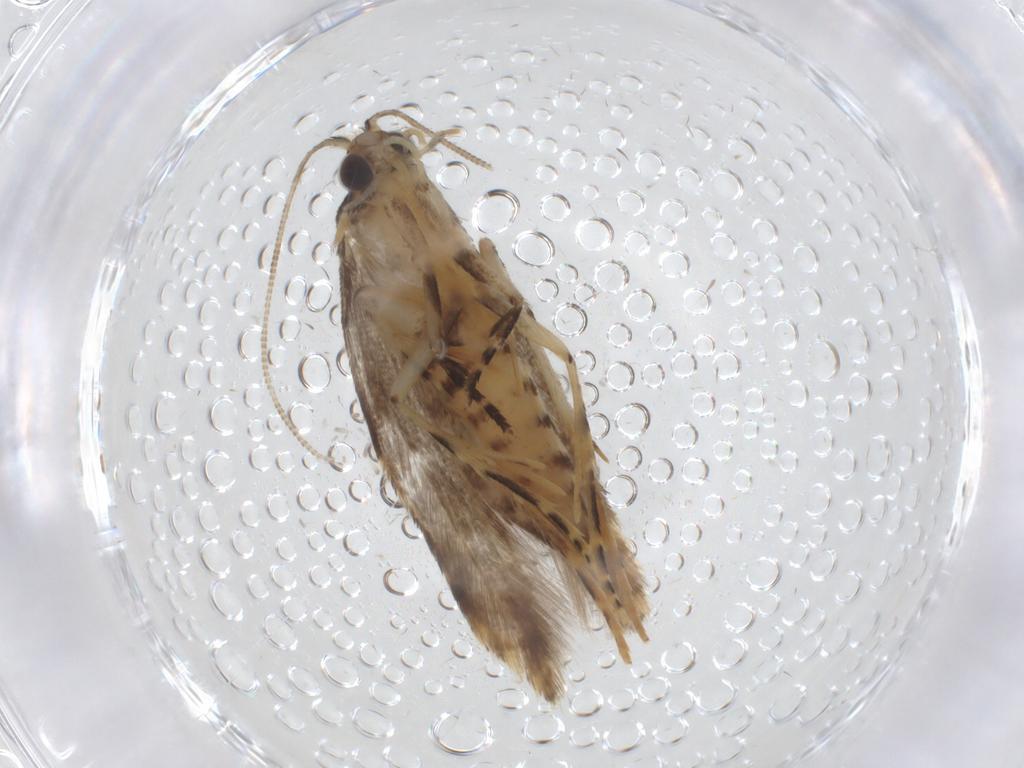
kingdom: Animalia
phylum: Arthropoda
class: Insecta
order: Lepidoptera
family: Tineidae
